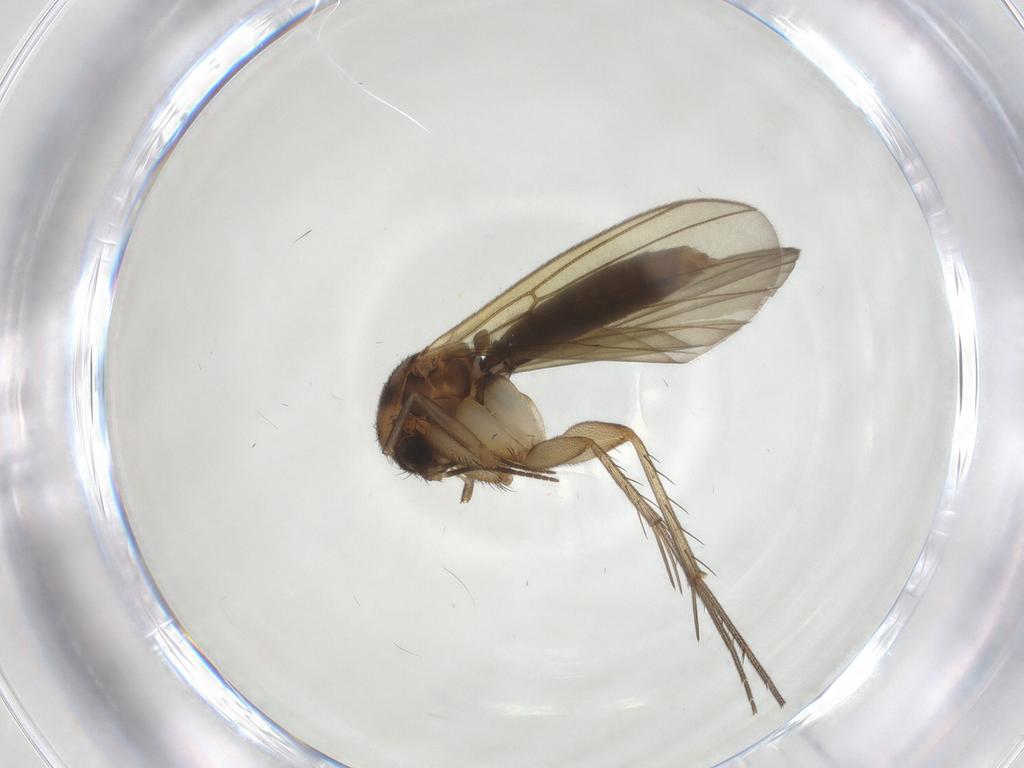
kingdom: Animalia
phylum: Arthropoda
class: Insecta
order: Diptera
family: Mycetophilidae
